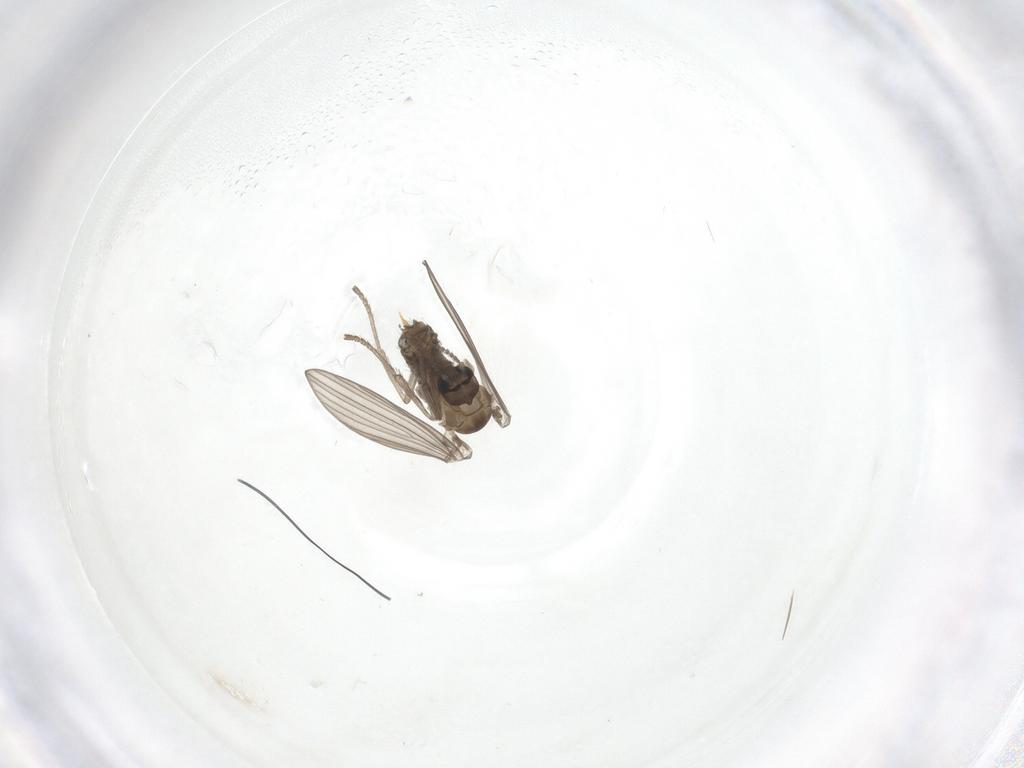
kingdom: Animalia
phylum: Arthropoda
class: Insecta
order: Diptera
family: Psychodidae
